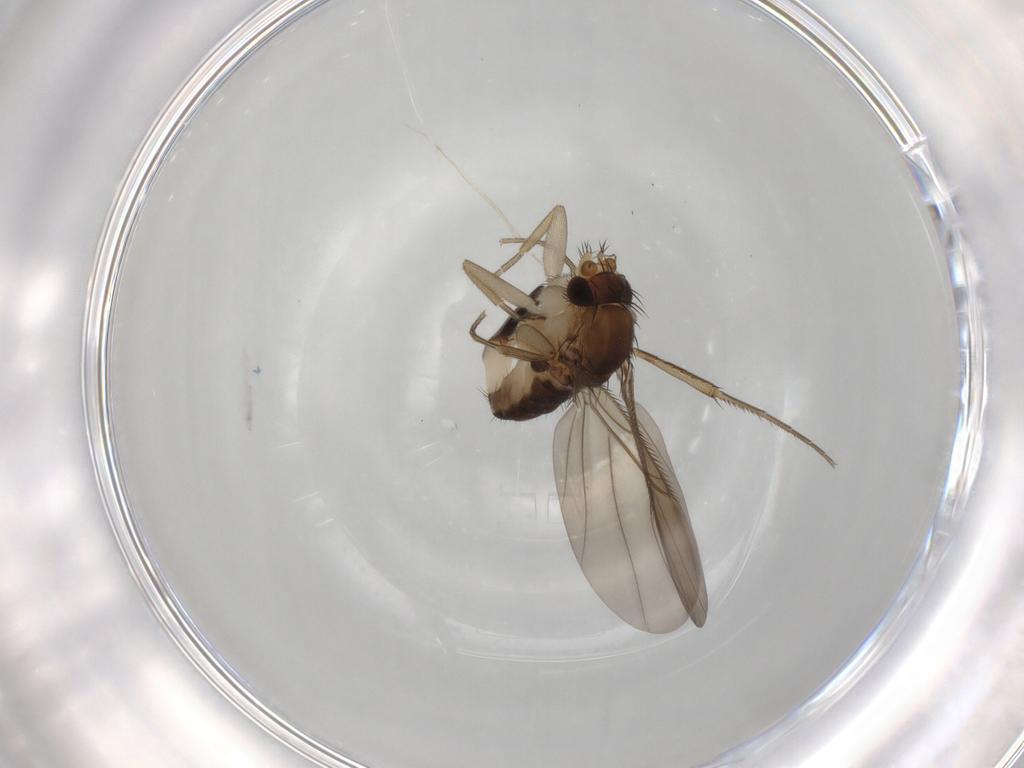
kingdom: Animalia
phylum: Arthropoda
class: Insecta
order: Diptera
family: Phoridae
